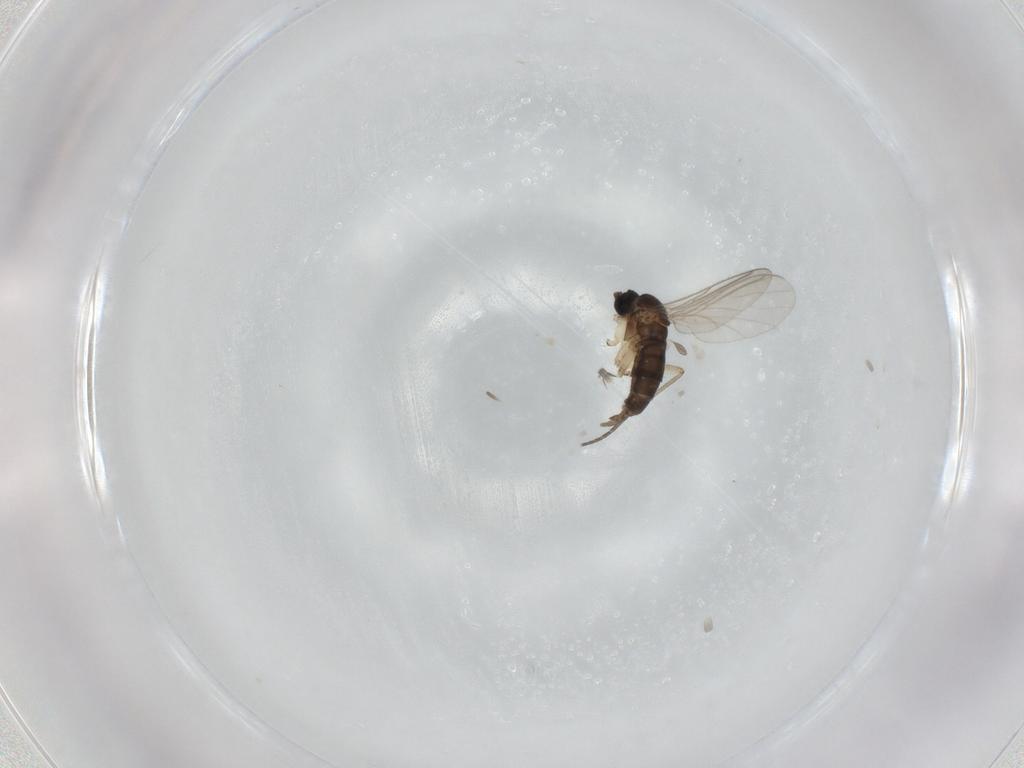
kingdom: Animalia
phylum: Arthropoda
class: Insecta
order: Diptera
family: Sciaridae
